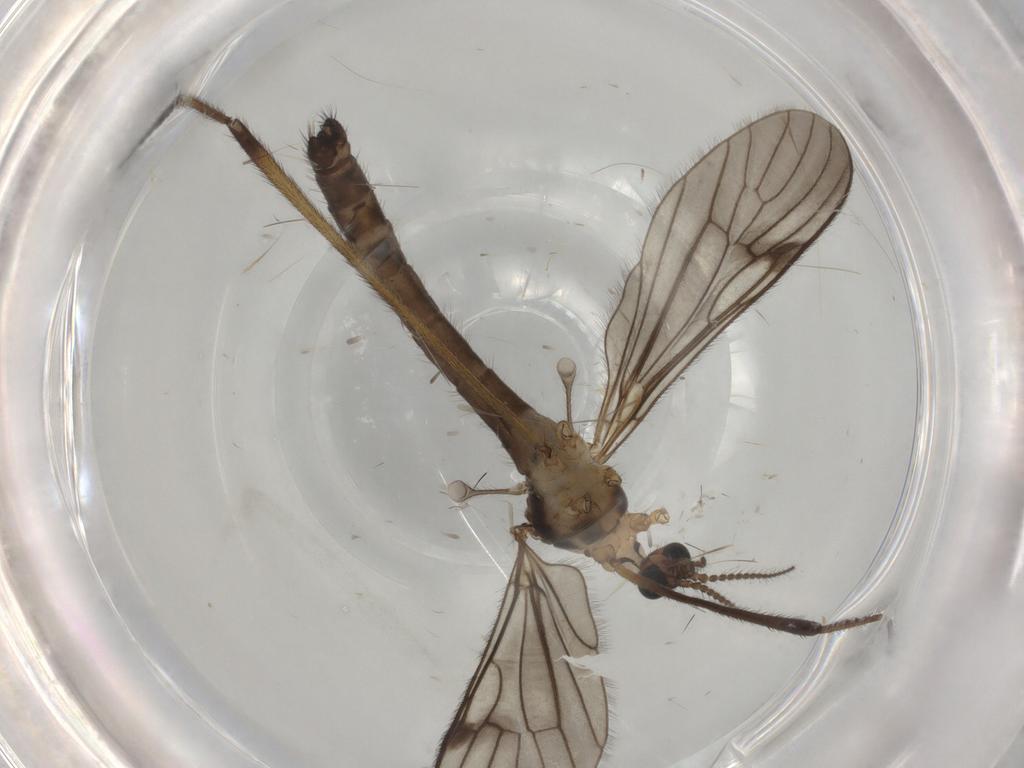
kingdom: Animalia
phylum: Arthropoda
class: Insecta
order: Diptera
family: Limoniidae
